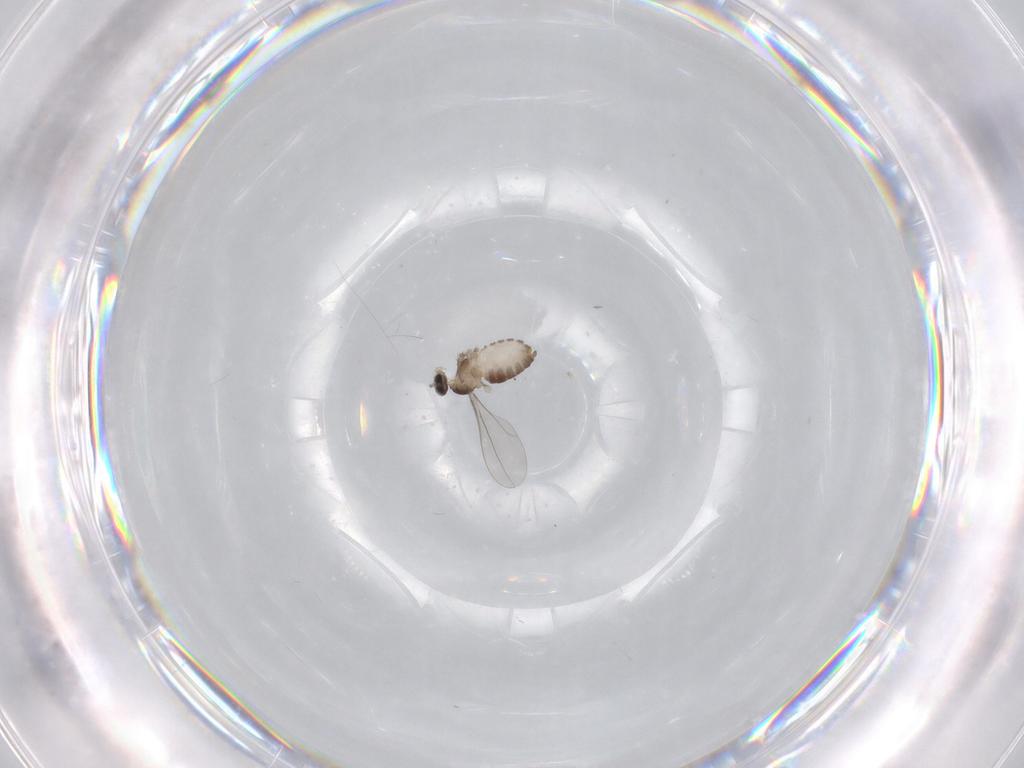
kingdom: Animalia
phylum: Arthropoda
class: Insecta
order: Diptera
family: Cecidomyiidae
